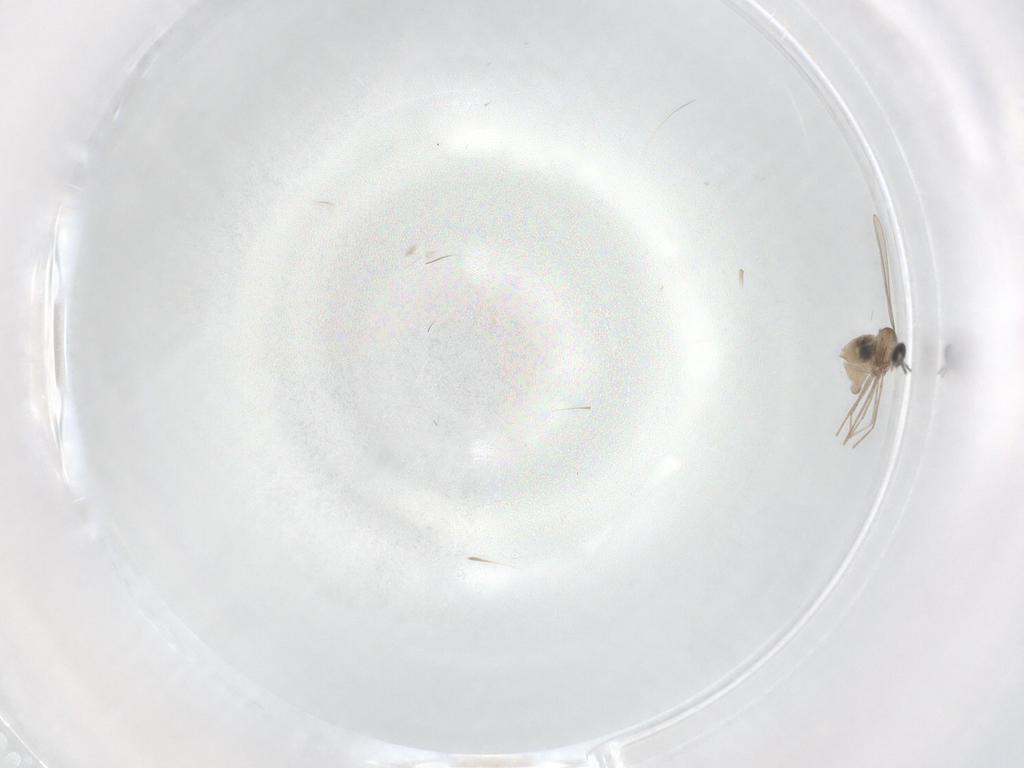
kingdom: Animalia
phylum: Arthropoda
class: Insecta
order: Diptera
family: Cecidomyiidae
